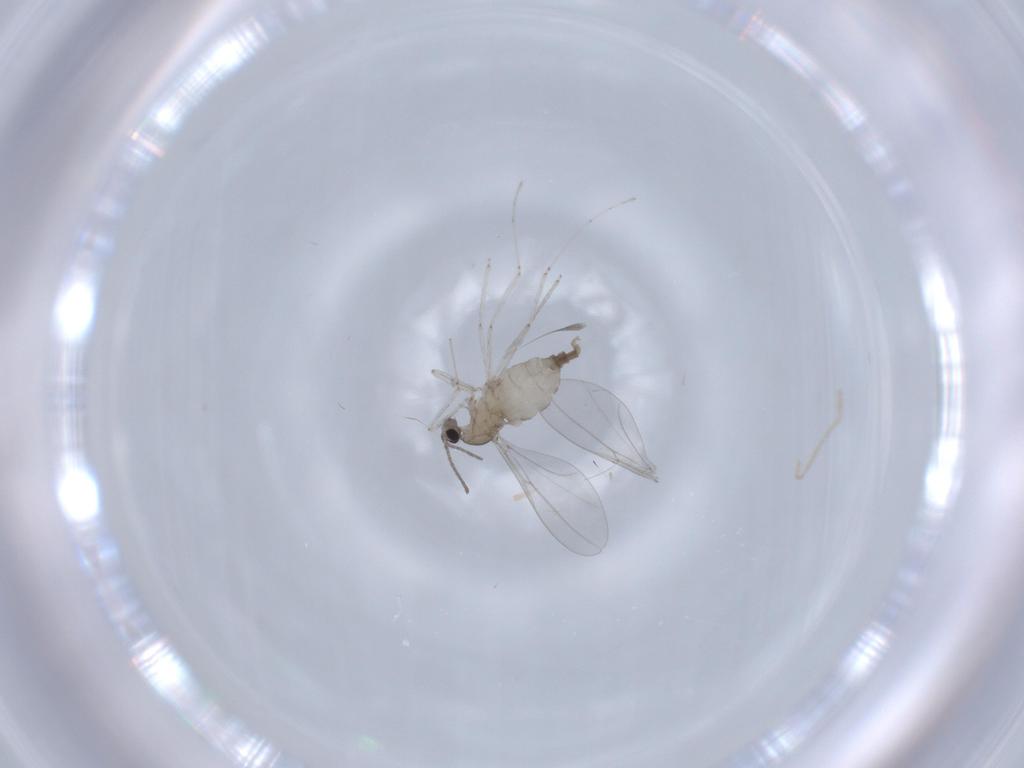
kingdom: Animalia
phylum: Arthropoda
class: Insecta
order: Diptera
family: Cecidomyiidae
